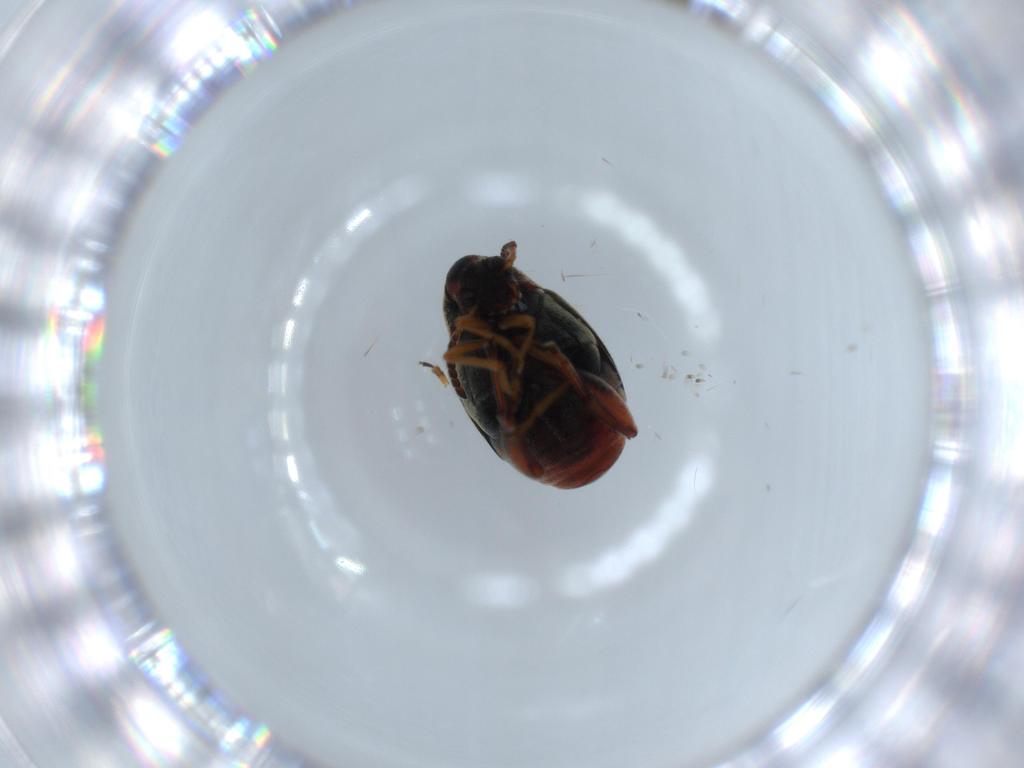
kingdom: Animalia
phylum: Arthropoda
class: Insecta
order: Coleoptera
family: Chrysomelidae
